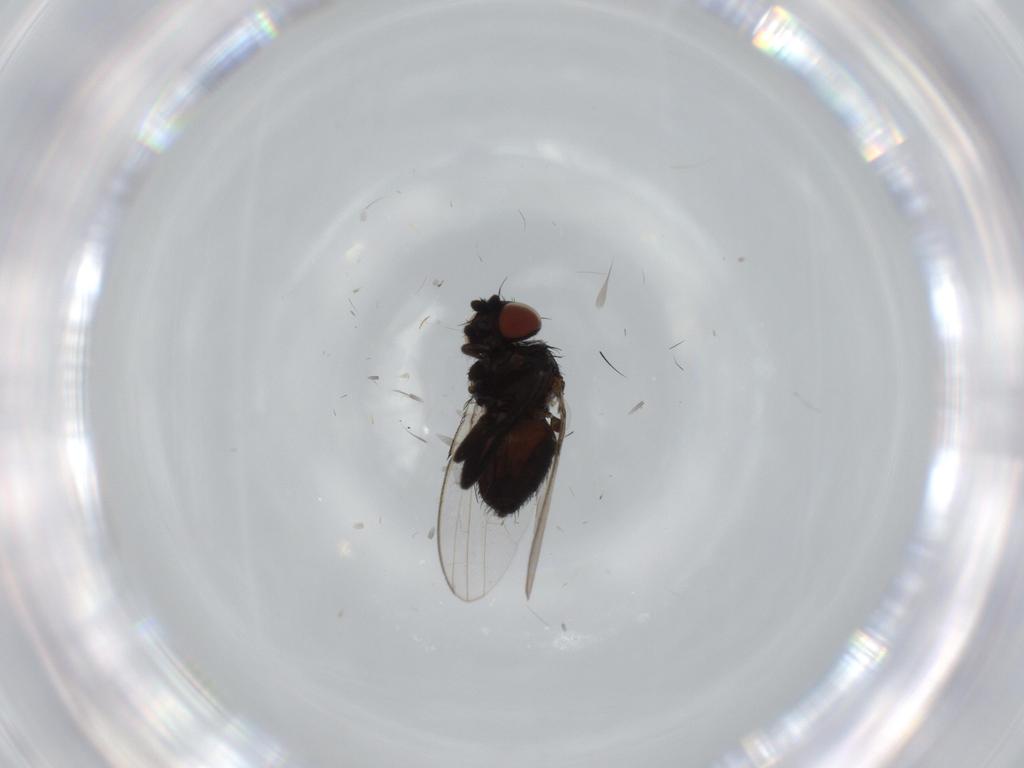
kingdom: Animalia
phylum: Arthropoda
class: Insecta
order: Diptera
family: Milichiidae
